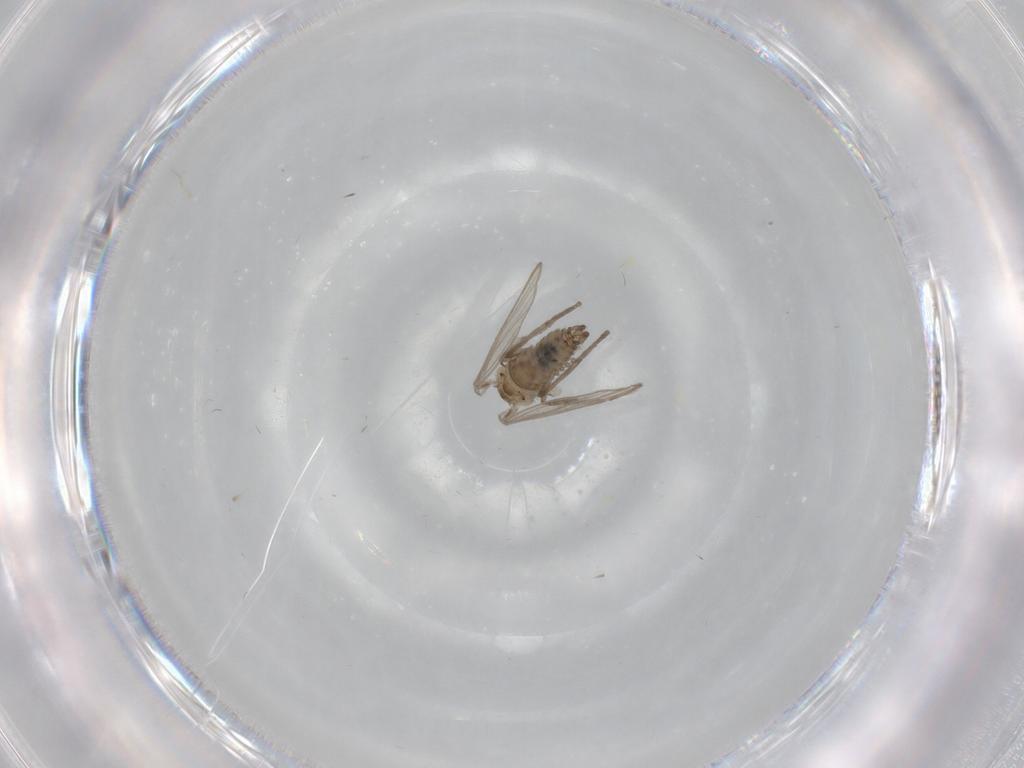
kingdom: Animalia
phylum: Arthropoda
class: Insecta
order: Diptera
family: Psychodidae
